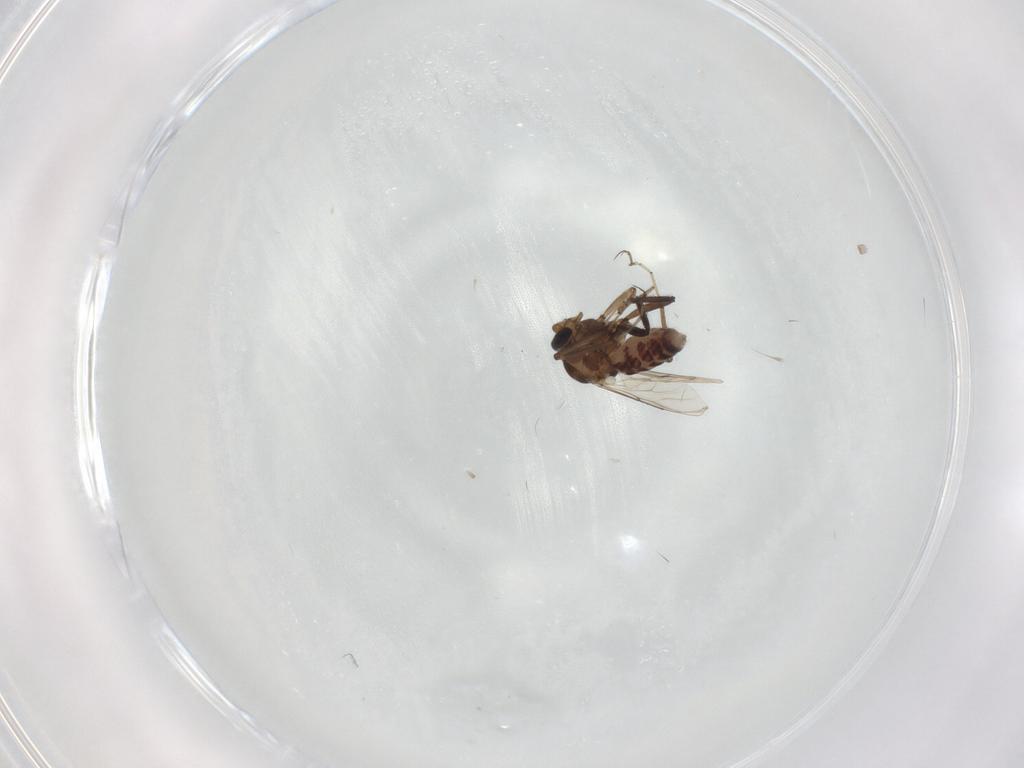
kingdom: Animalia
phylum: Arthropoda
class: Insecta
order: Diptera
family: Ceratopogonidae
